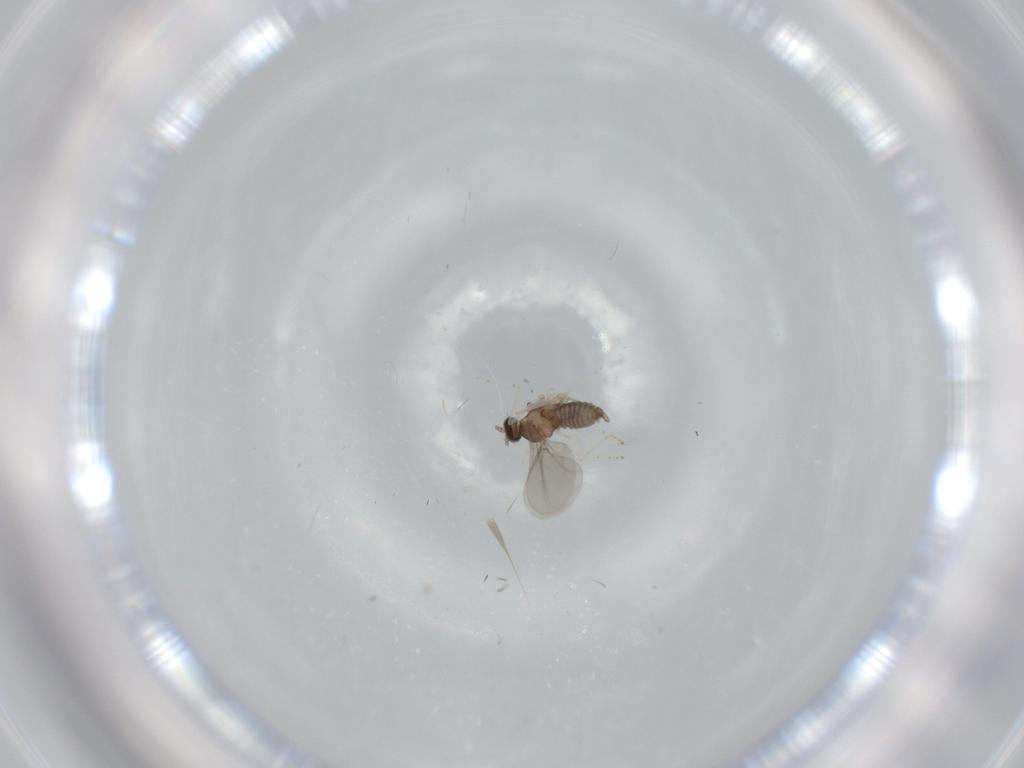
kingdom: Animalia
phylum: Arthropoda
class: Insecta
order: Diptera
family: Cecidomyiidae
